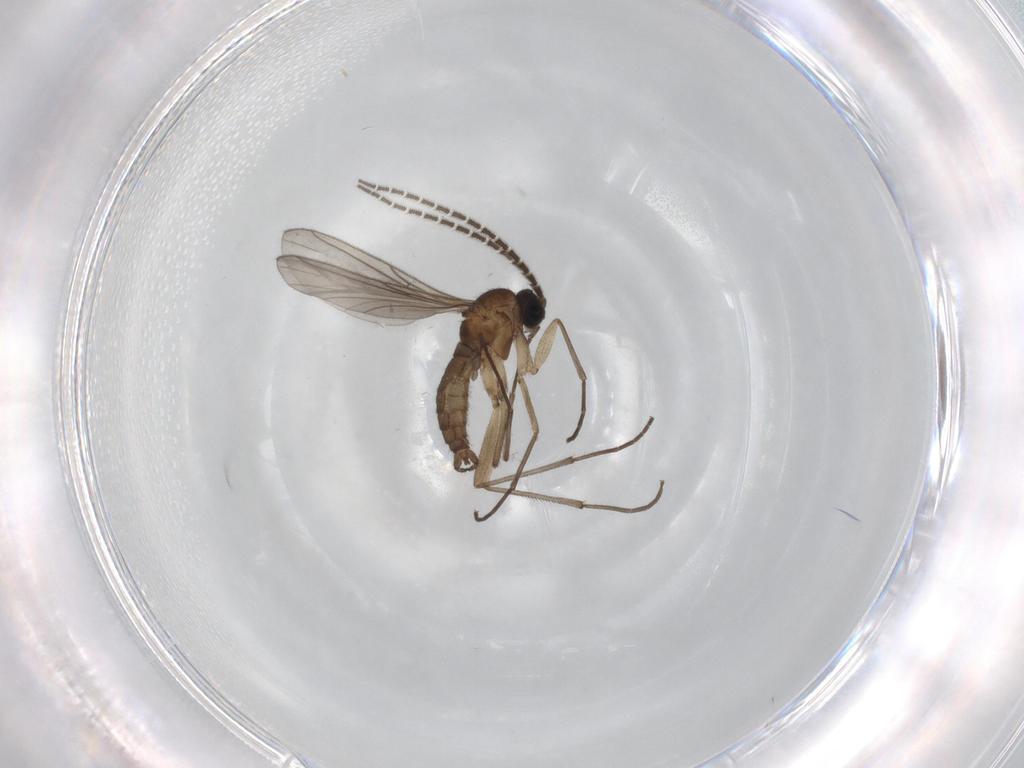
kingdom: Animalia
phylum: Arthropoda
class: Insecta
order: Diptera
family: Sciaridae
